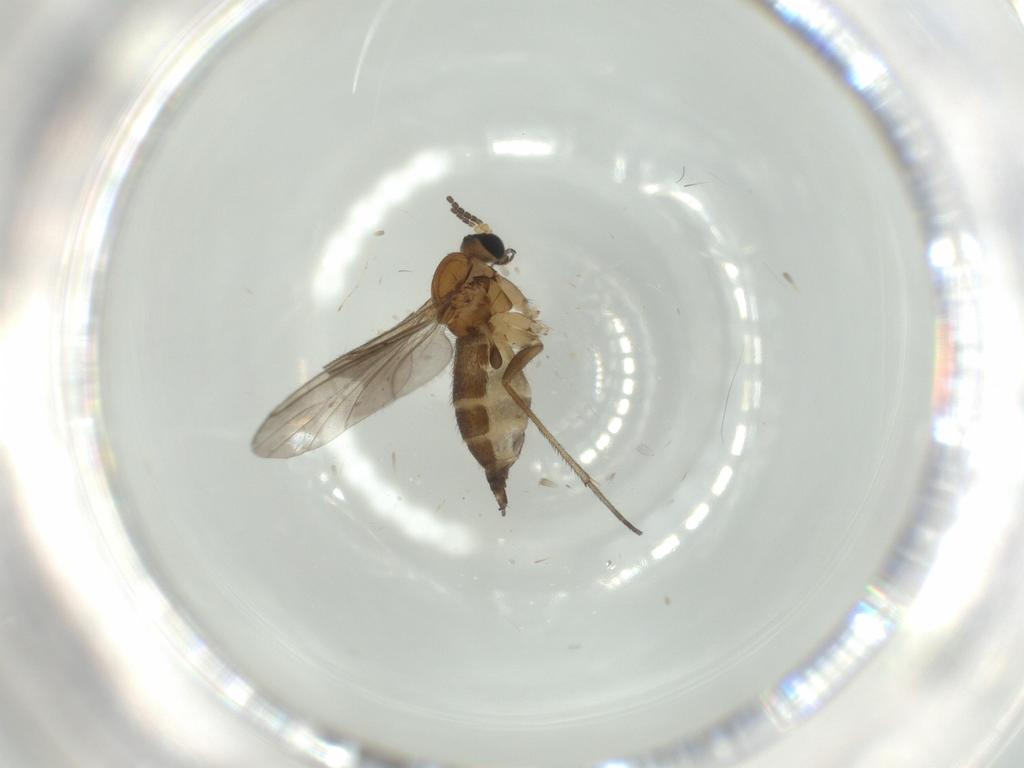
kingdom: Animalia
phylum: Arthropoda
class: Insecta
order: Diptera
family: Sciaridae
